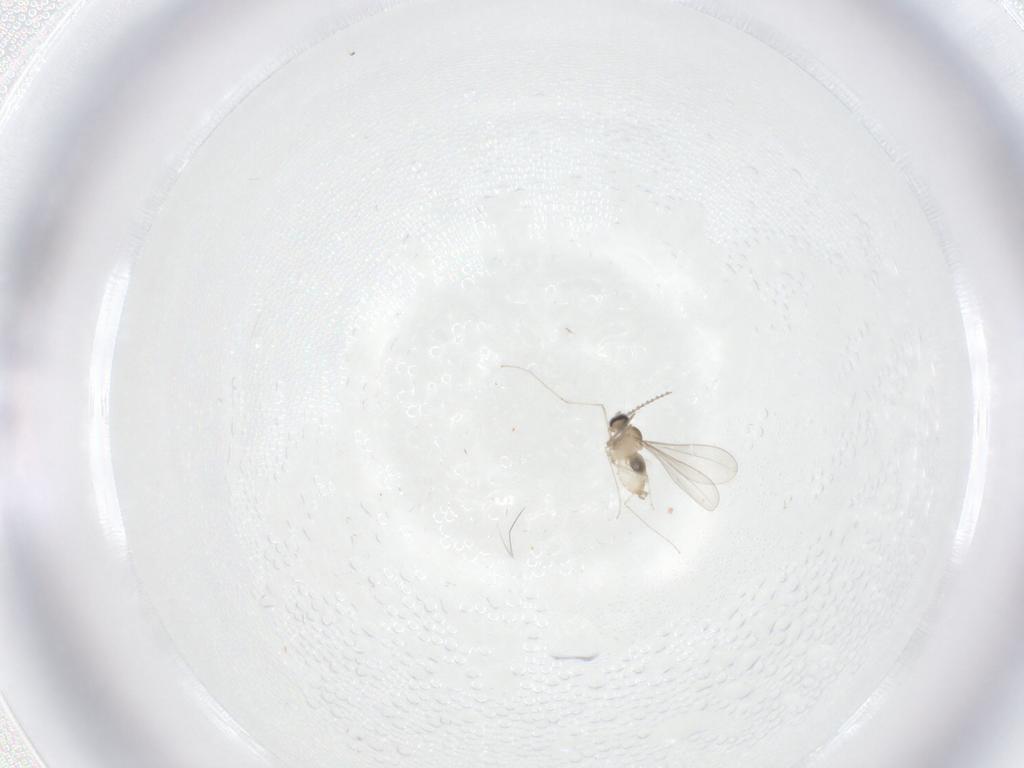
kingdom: Animalia
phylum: Arthropoda
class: Insecta
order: Diptera
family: Cecidomyiidae
